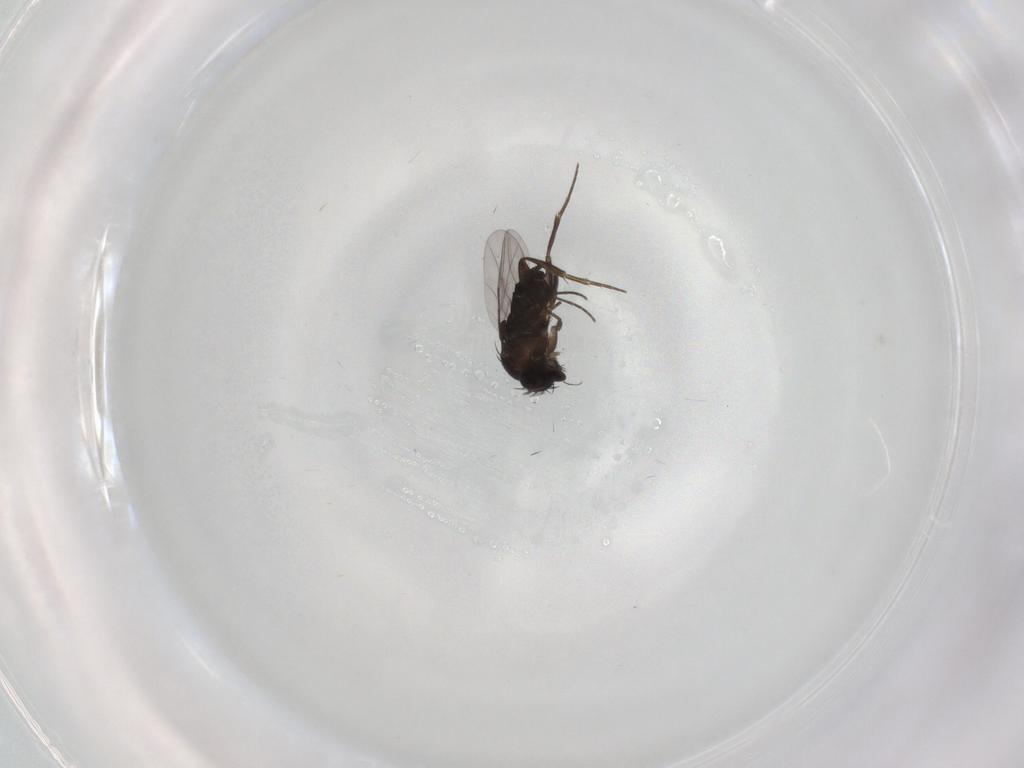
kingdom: Animalia
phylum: Arthropoda
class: Insecta
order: Diptera
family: Phoridae
